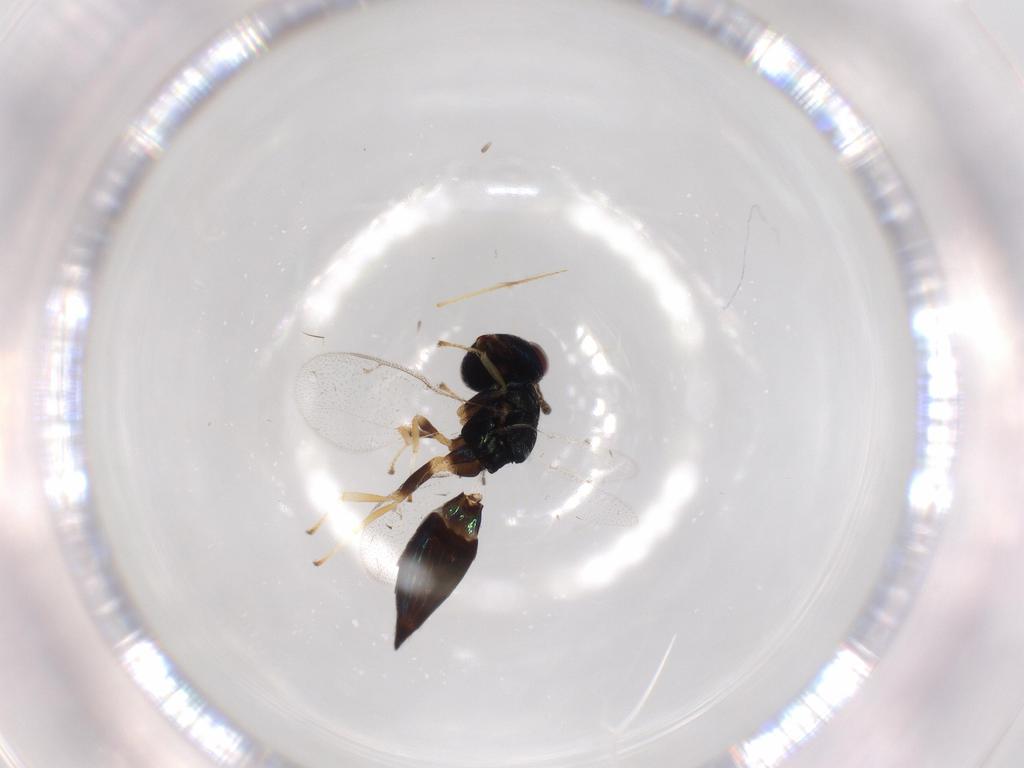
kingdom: Animalia
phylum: Arthropoda
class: Insecta
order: Hymenoptera
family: Pteromalidae
